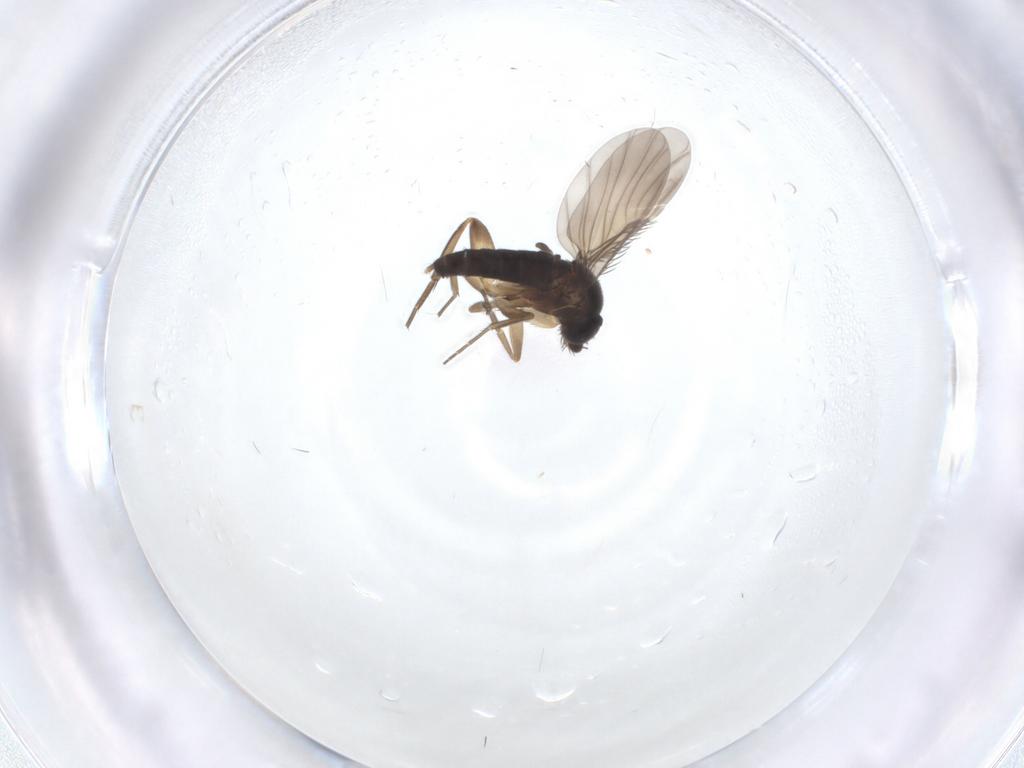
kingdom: Animalia
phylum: Arthropoda
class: Insecta
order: Diptera
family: Phoridae
